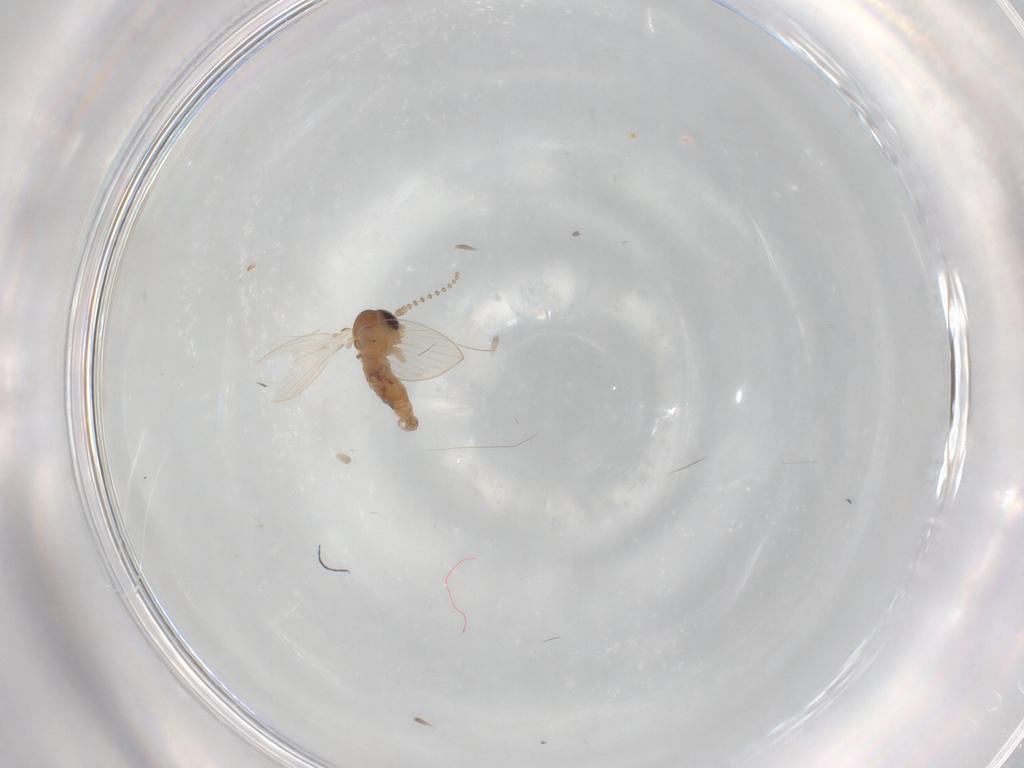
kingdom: Animalia
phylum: Arthropoda
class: Insecta
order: Diptera
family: Psychodidae
